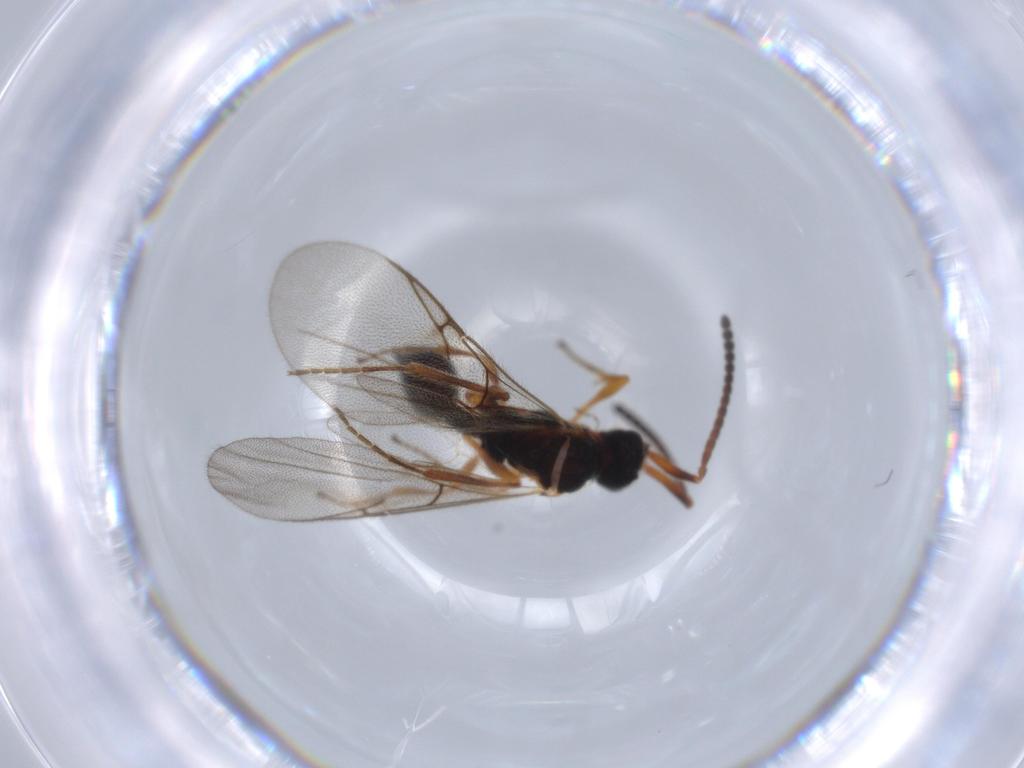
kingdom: Animalia
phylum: Arthropoda
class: Insecta
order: Hymenoptera
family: Diapriidae
